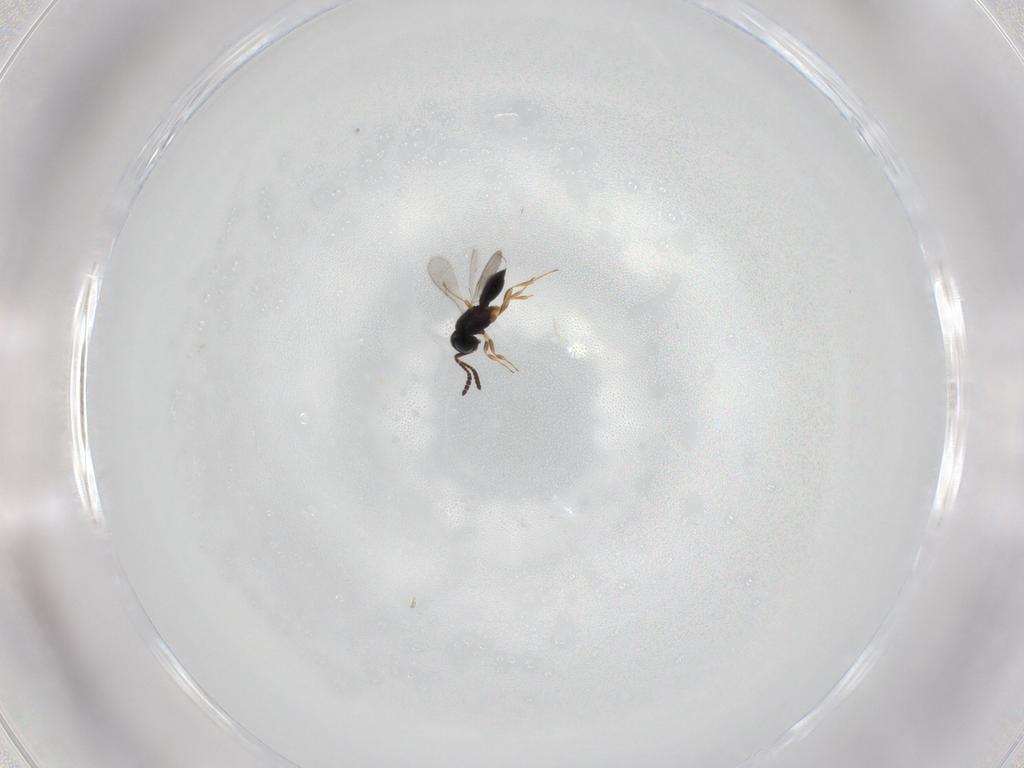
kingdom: Animalia
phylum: Arthropoda
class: Insecta
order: Hymenoptera
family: Scelionidae
